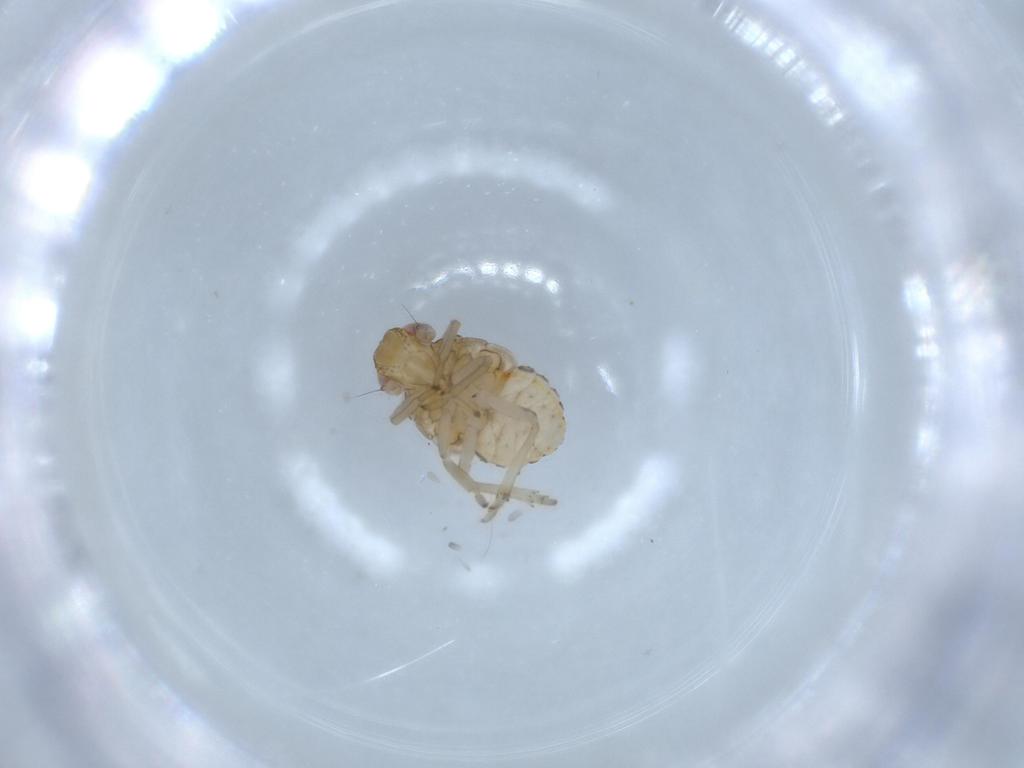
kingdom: Animalia
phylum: Arthropoda
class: Insecta
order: Hemiptera
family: Issidae
